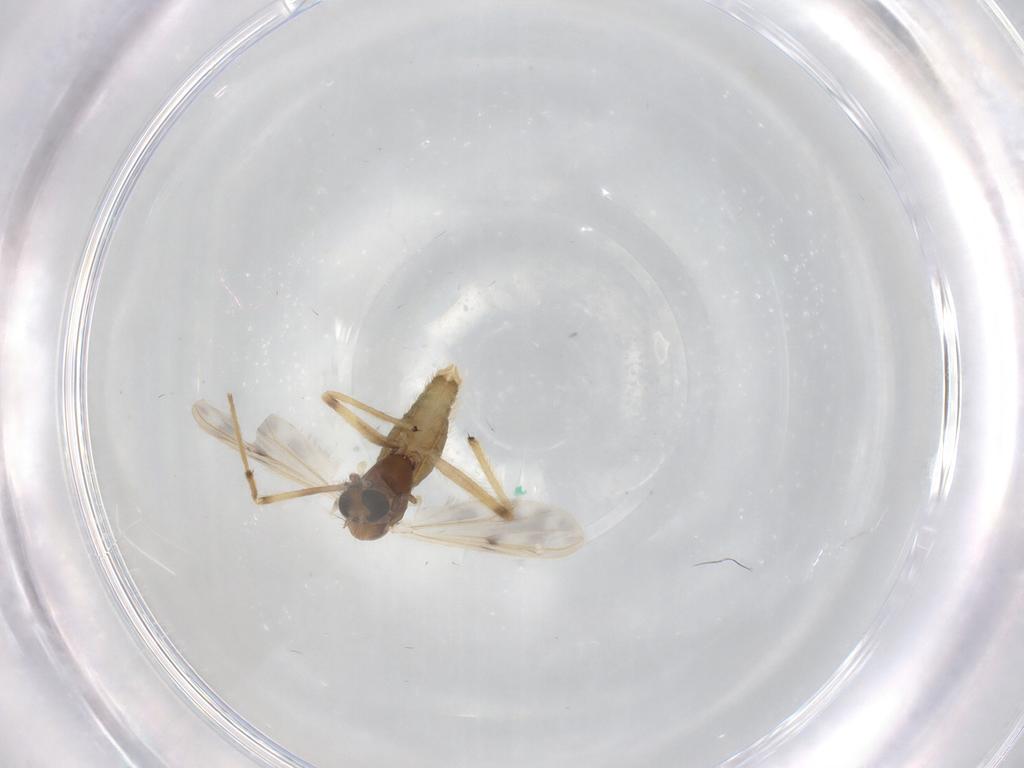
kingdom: Animalia
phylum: Arthropoda
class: Insecta
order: Diptera
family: Chironomidae
